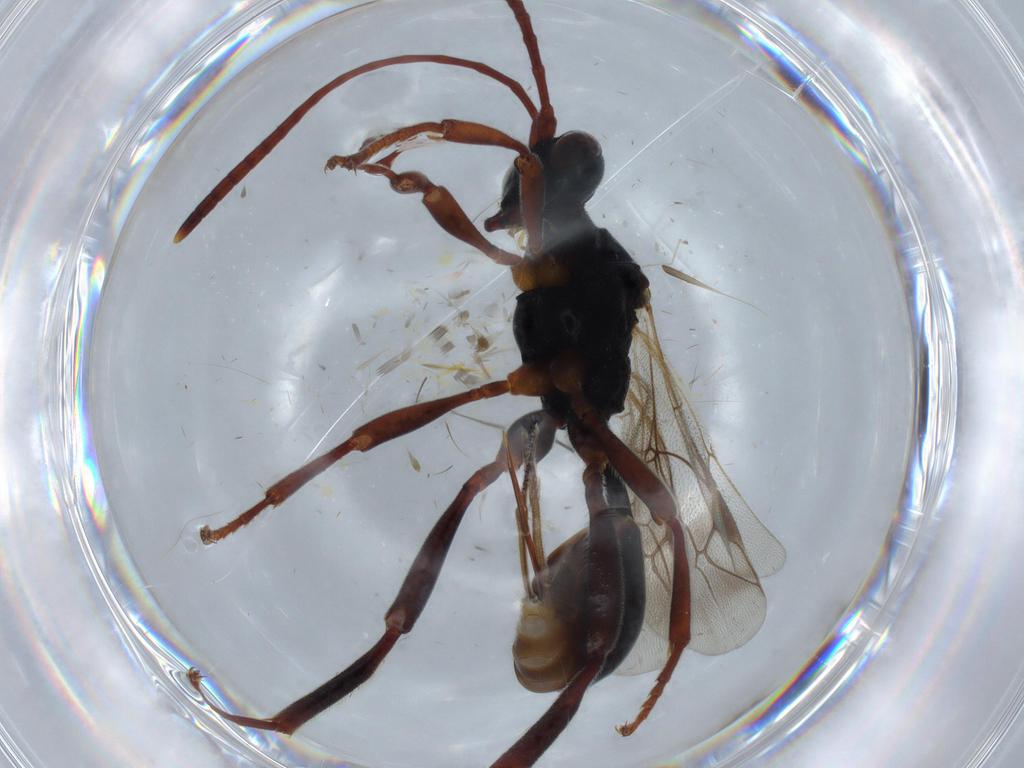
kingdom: Animalia
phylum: Arthropoda
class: Insecta
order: Hymenoptera
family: Ichneumonidae
